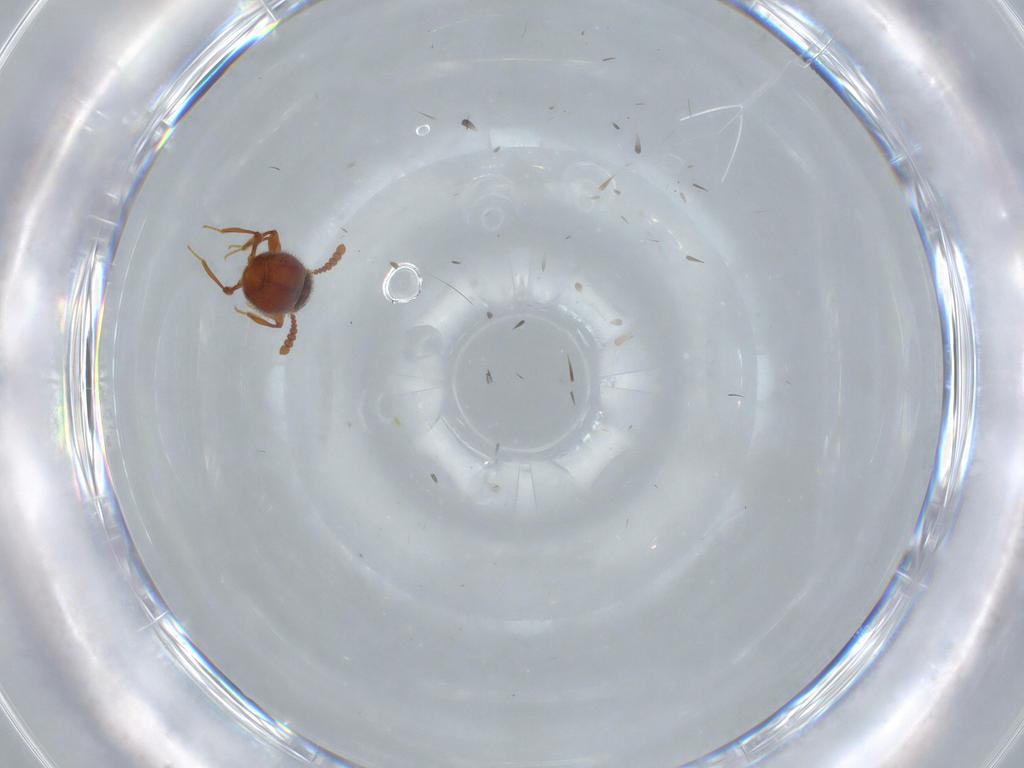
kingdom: Animalia
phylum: Arthropoda
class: Insecta
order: Coleoptera
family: Staphylinidae
